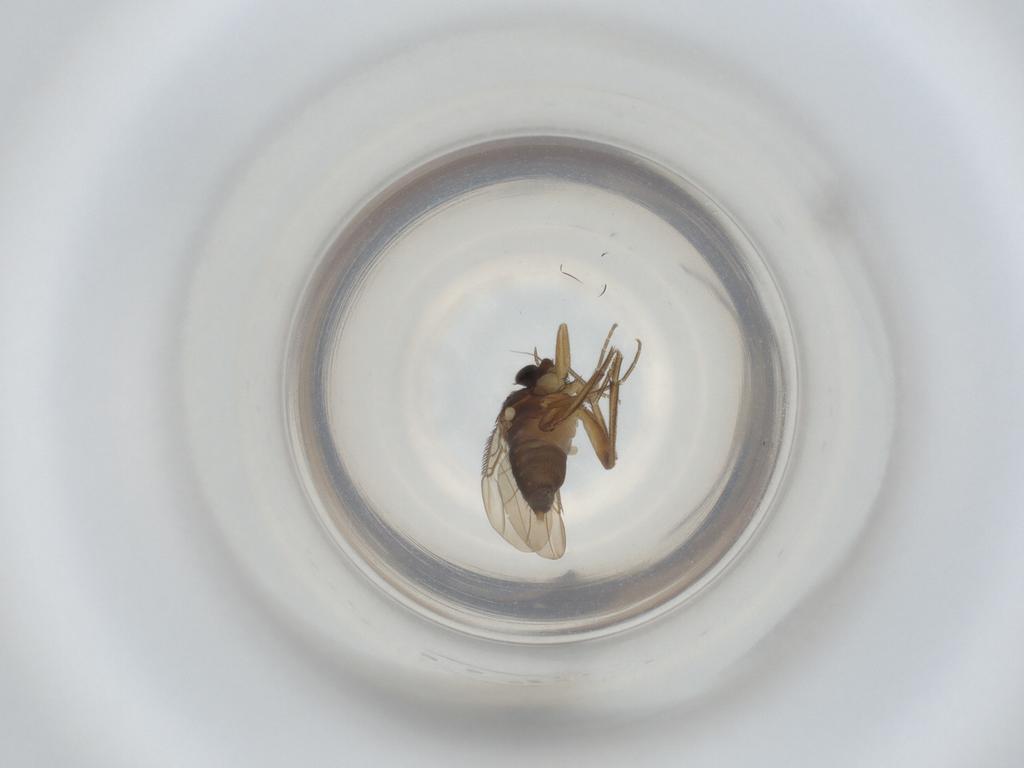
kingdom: Animalia
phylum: Arthropoda
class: Insecta
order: Diptera
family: Phoridae
